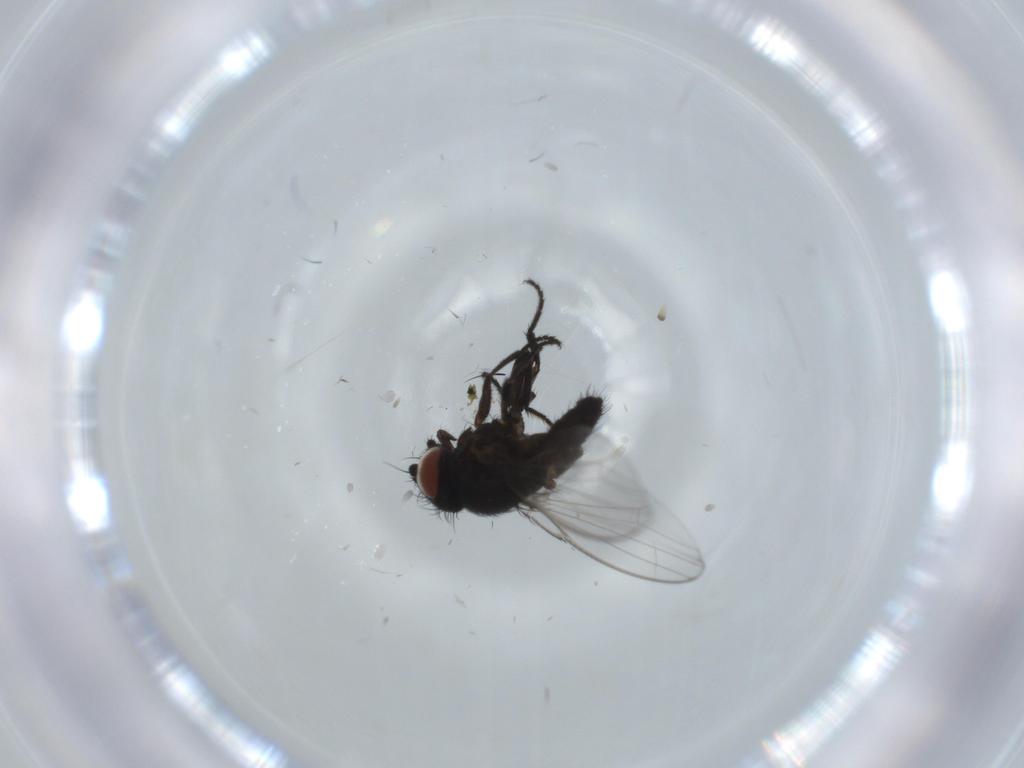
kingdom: Animalia
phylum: Arthropoda
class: Insecta
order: Diptera
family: Milichiidae
